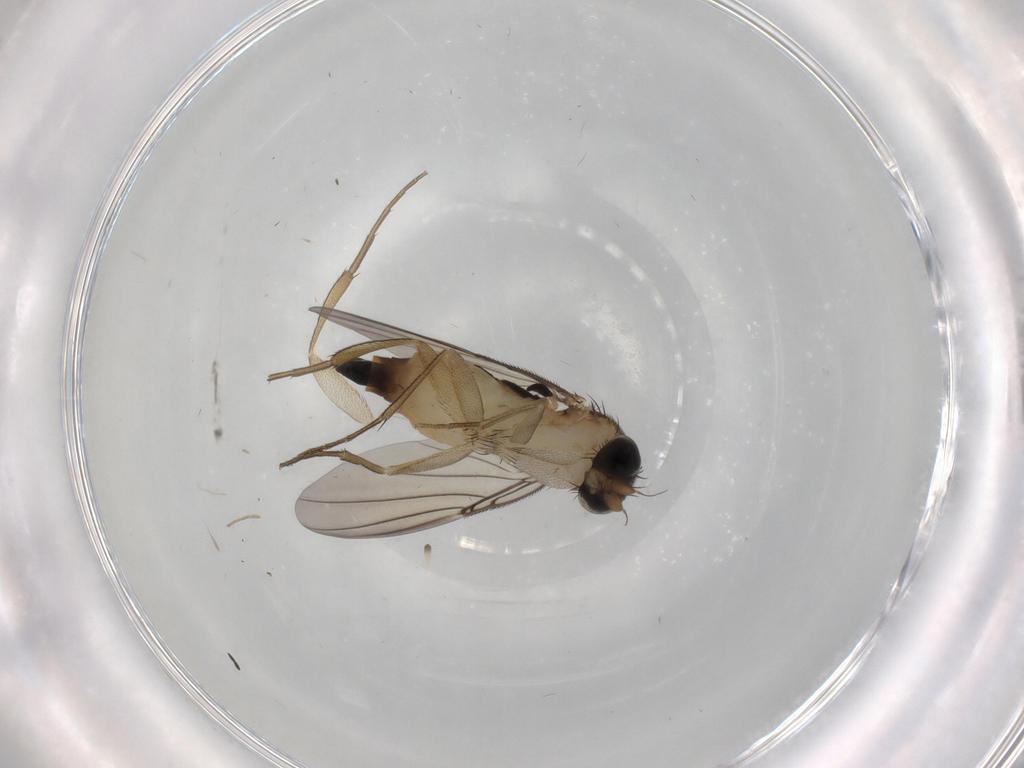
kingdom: Animalia
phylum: Arthropoda
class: Insecta
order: Diptera
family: Phoridae
